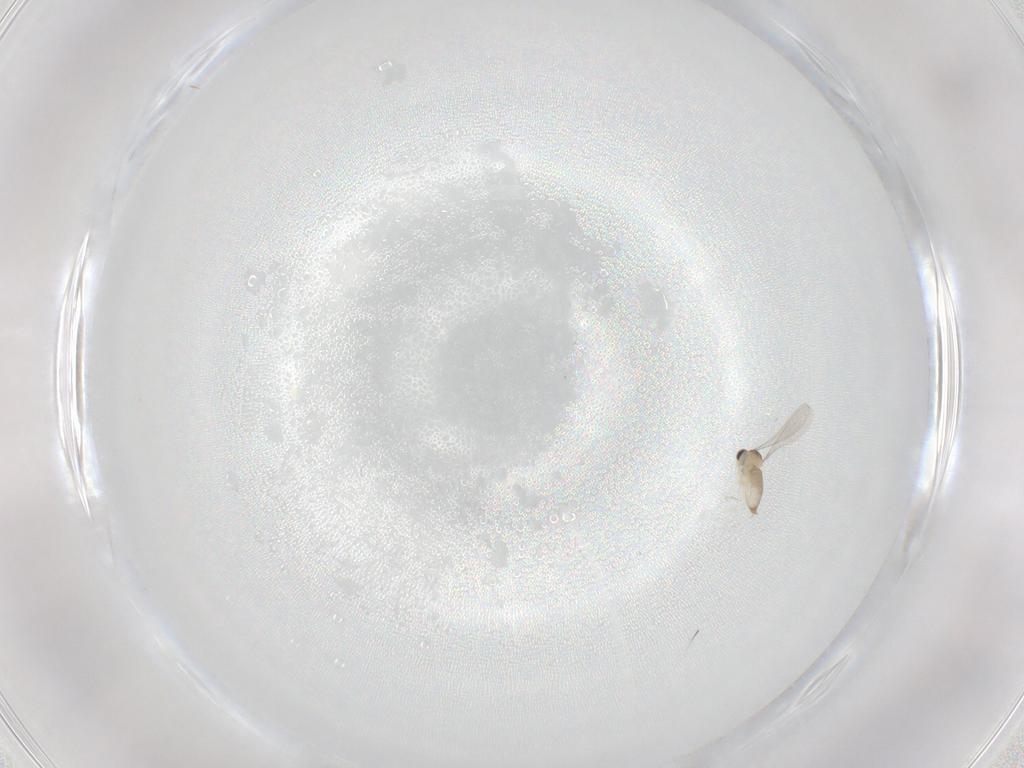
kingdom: Animalia
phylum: Arthropoda
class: Insecta
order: Diptera
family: Sciaridae
